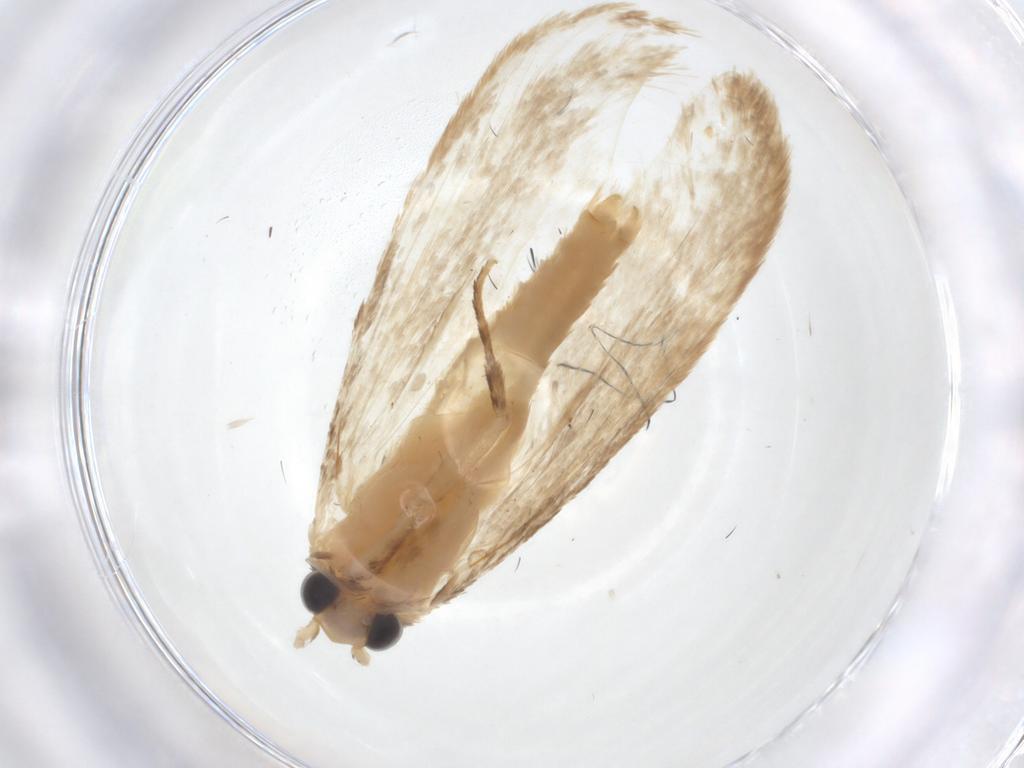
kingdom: Animalia
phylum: Arthropoda
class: Insecta
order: Lepidoptera
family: Tineidae
